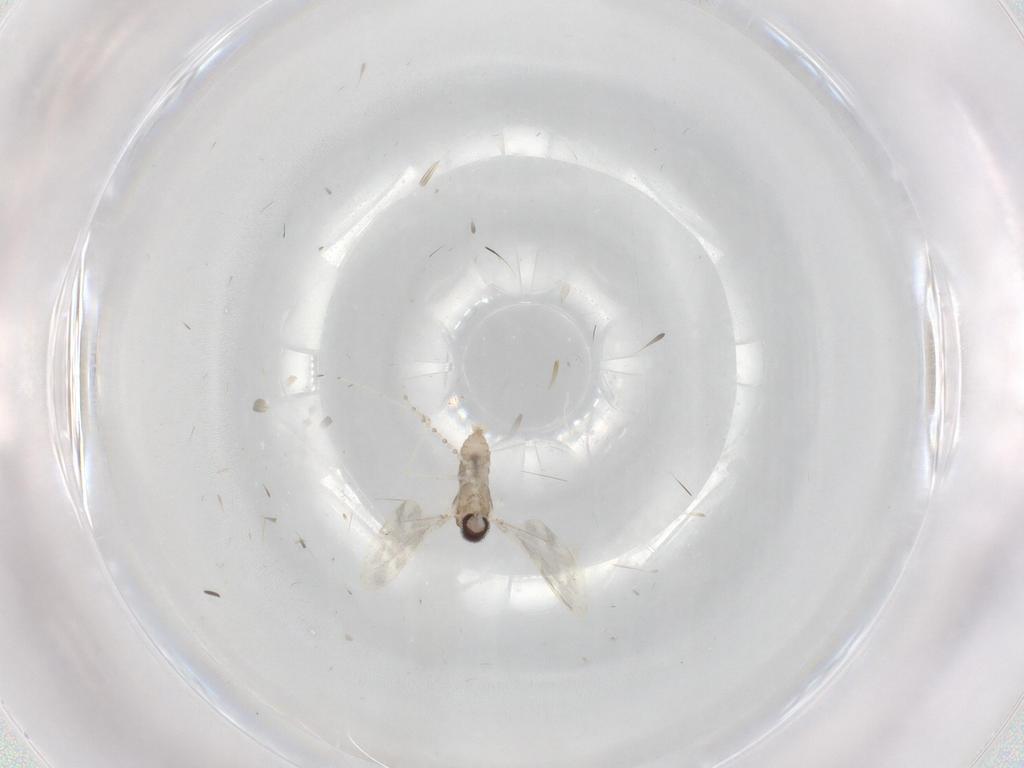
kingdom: Animalia
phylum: Arthropoda
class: Insecta
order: Diptera
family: Cecidomyiidae
